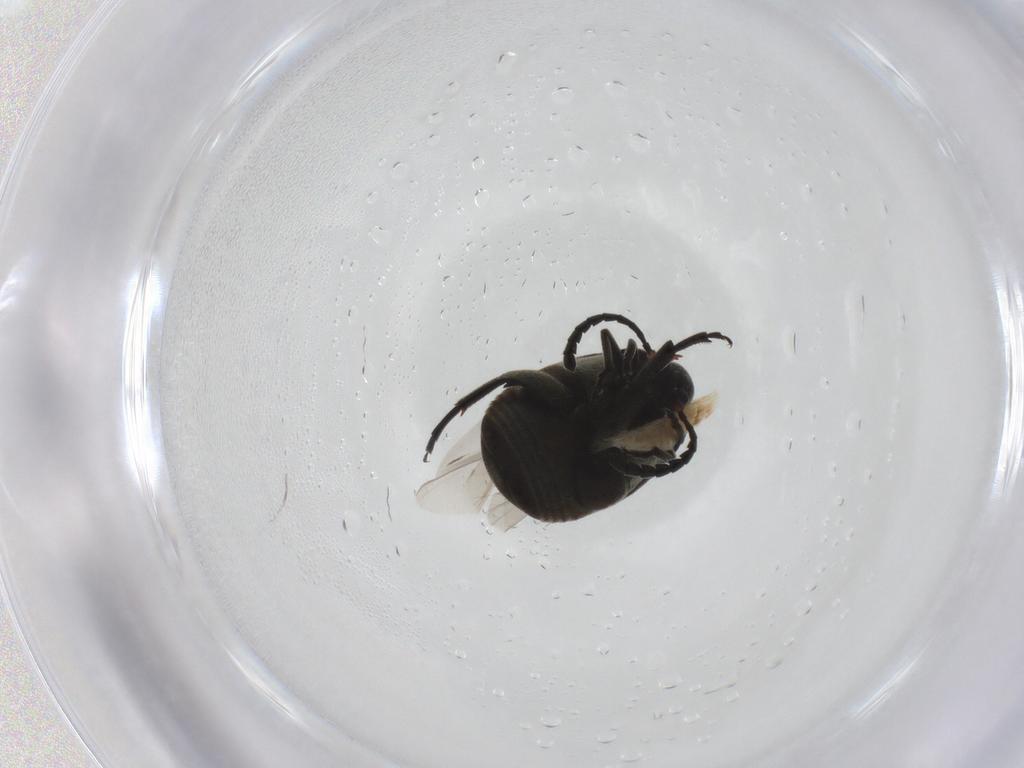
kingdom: Animalia
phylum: Arthropoda
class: Insecta
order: Coleoptera
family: Chrysomelidae
